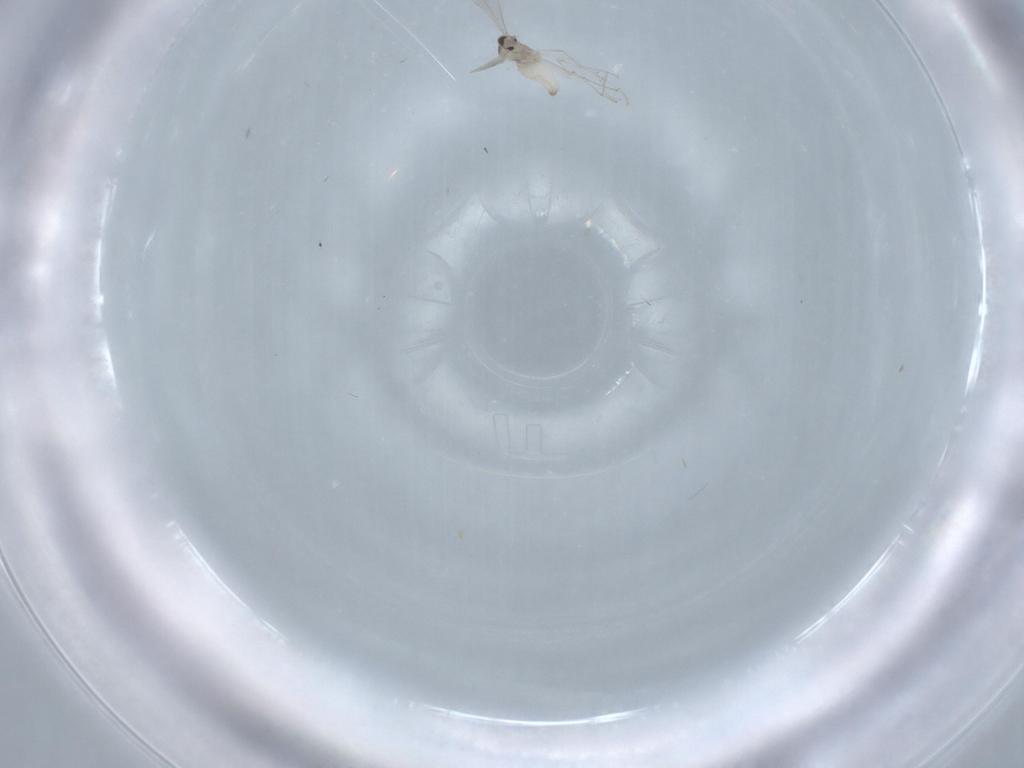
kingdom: Animalia
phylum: Arthropoda
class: Insecta
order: Diptera
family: Cecidomyiidae
